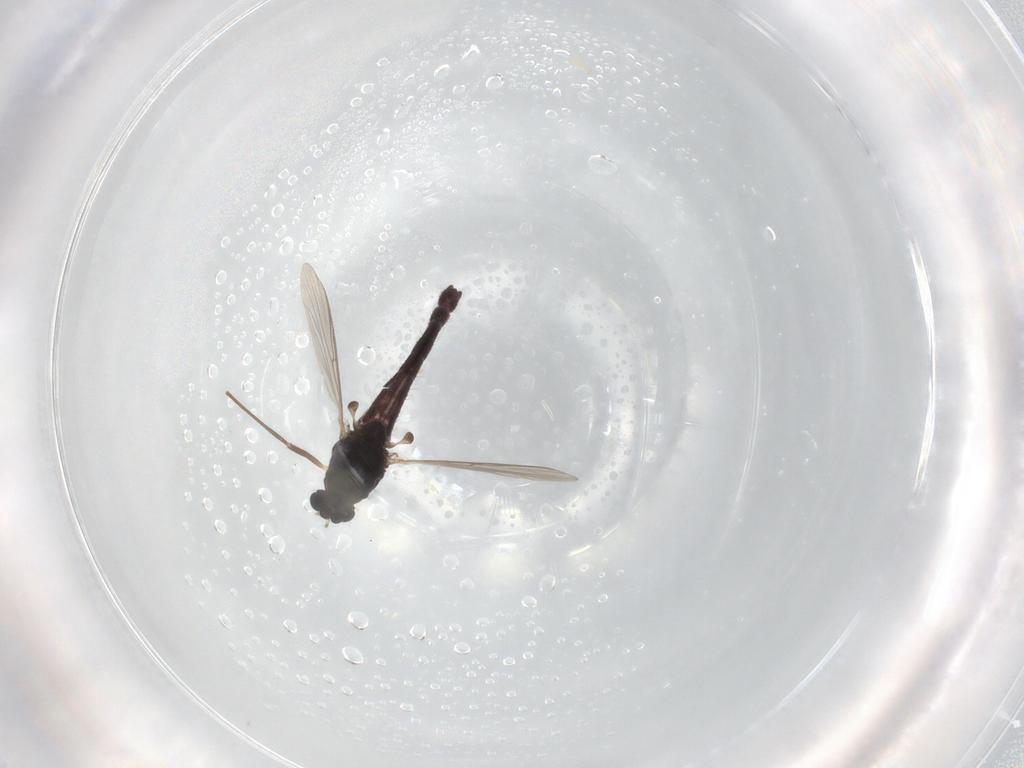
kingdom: Animalia
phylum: Arthropoda
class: Insecta
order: Diptera
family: Chironomidae
